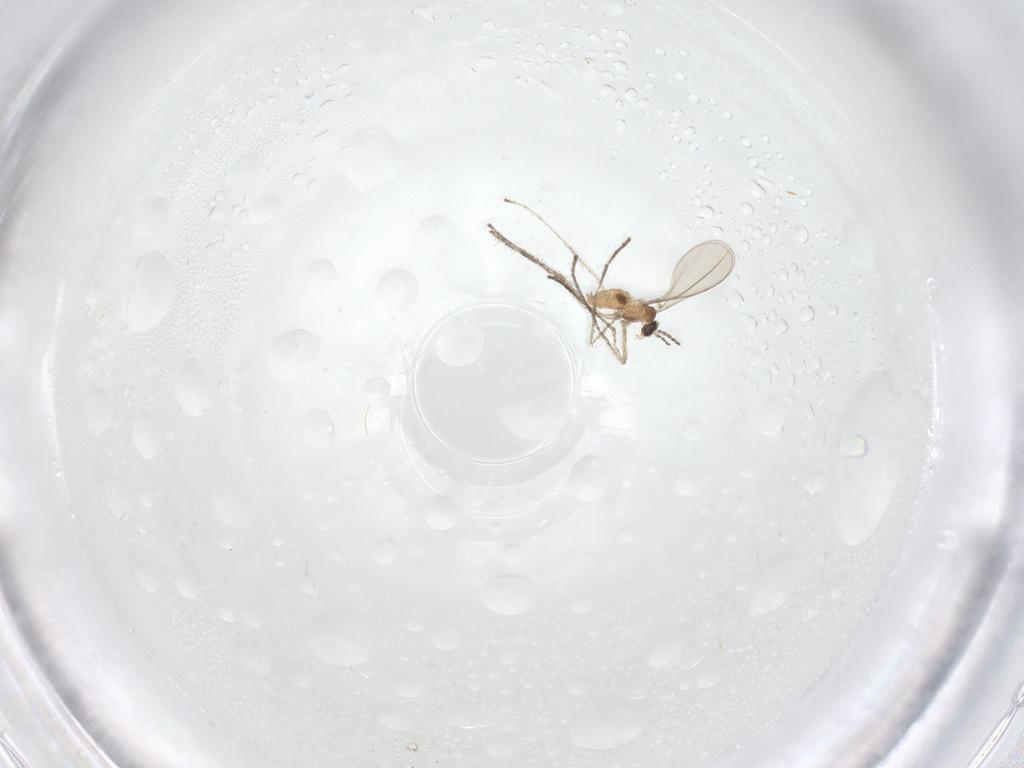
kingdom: Animalia
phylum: Arthropoda
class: Insecta
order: Diptera
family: Cecidomyiidae
